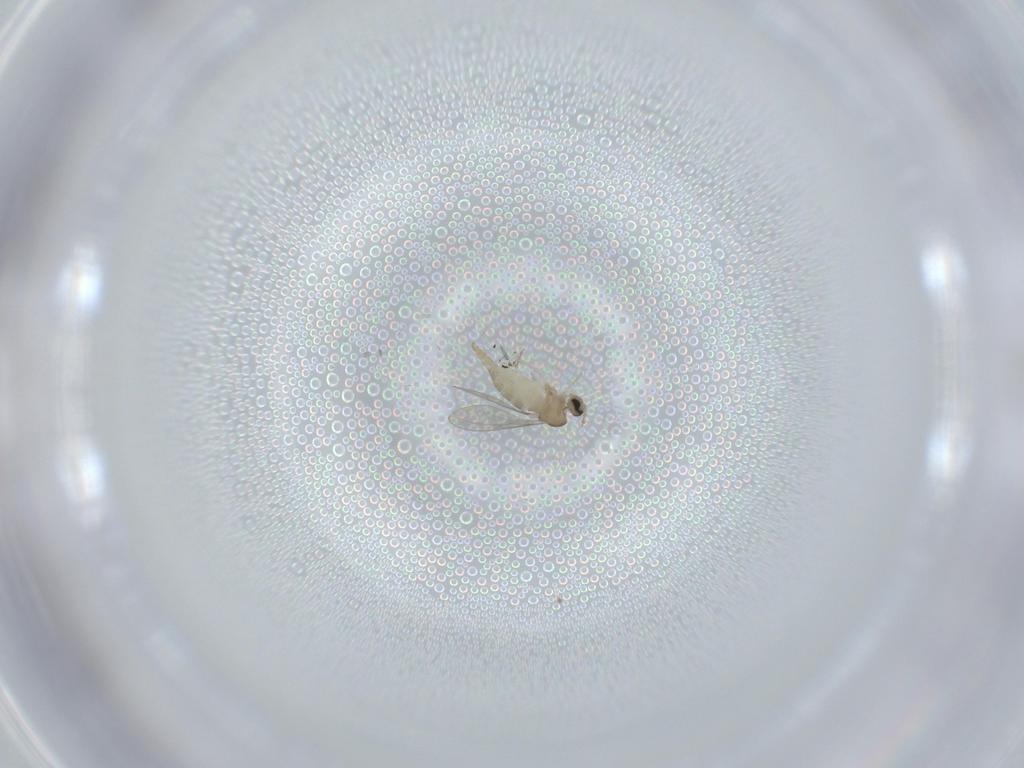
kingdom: Animalia
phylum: Arthropoda
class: Insecta
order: Diptera
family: Cecidomyiidae
